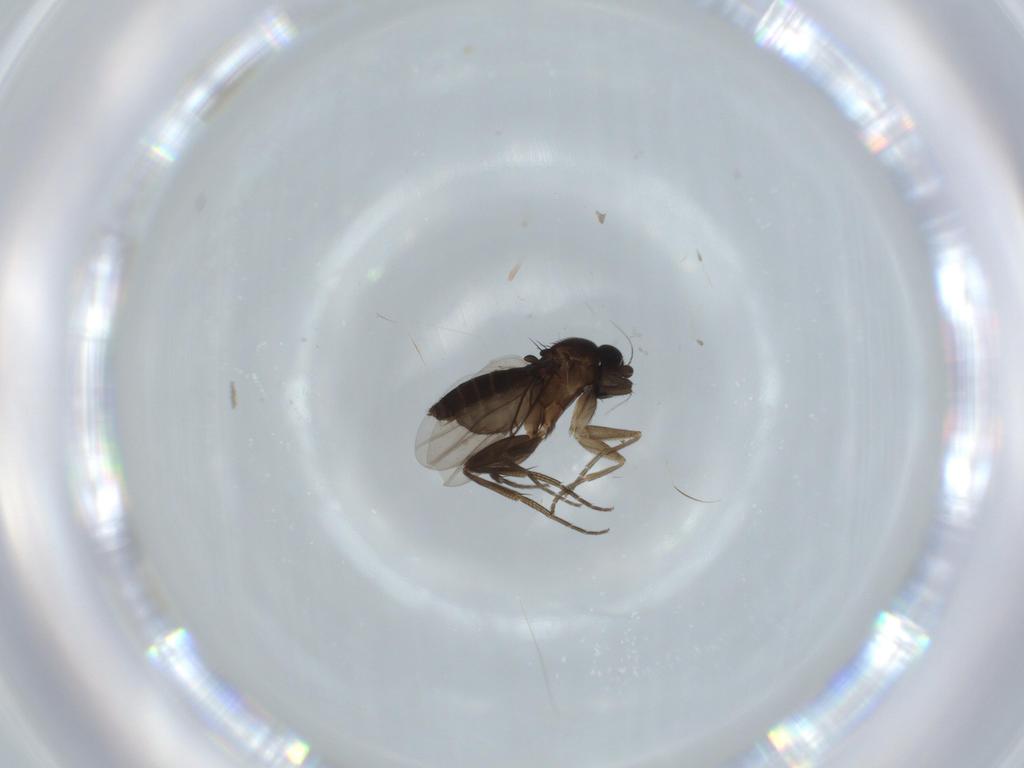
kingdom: Animalia
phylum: Arthropoda
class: Insecta
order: Diptera
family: Phoridae
